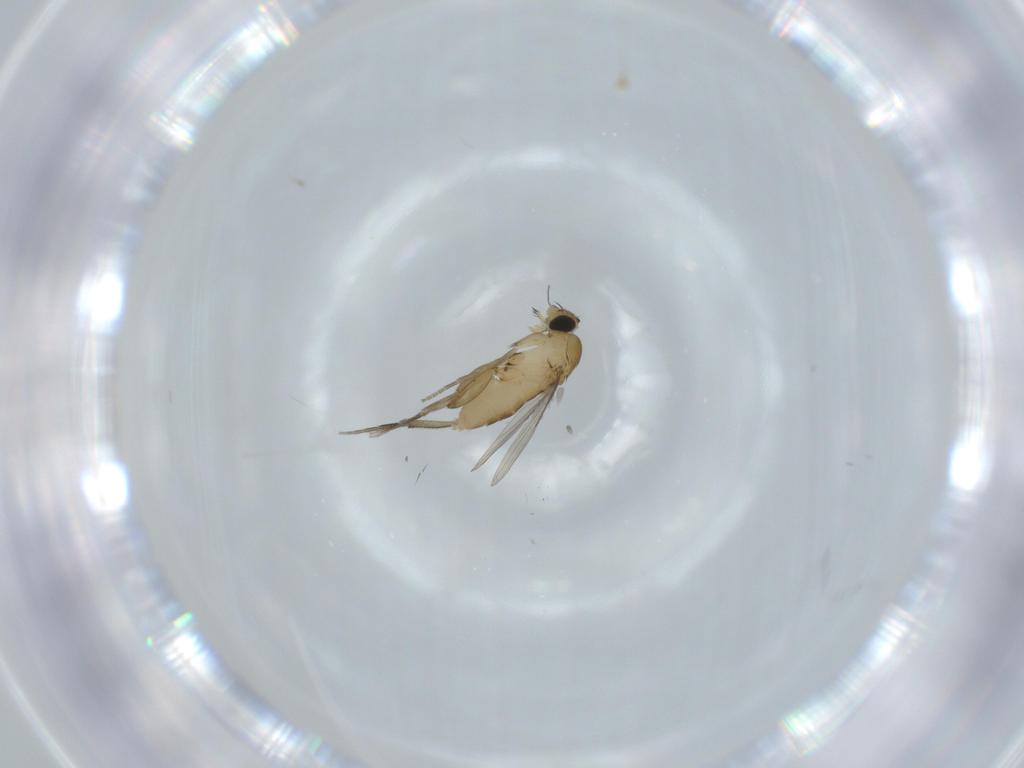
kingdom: Animalia
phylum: Arthropoda
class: Insecta
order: Diptera
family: Phoridae
